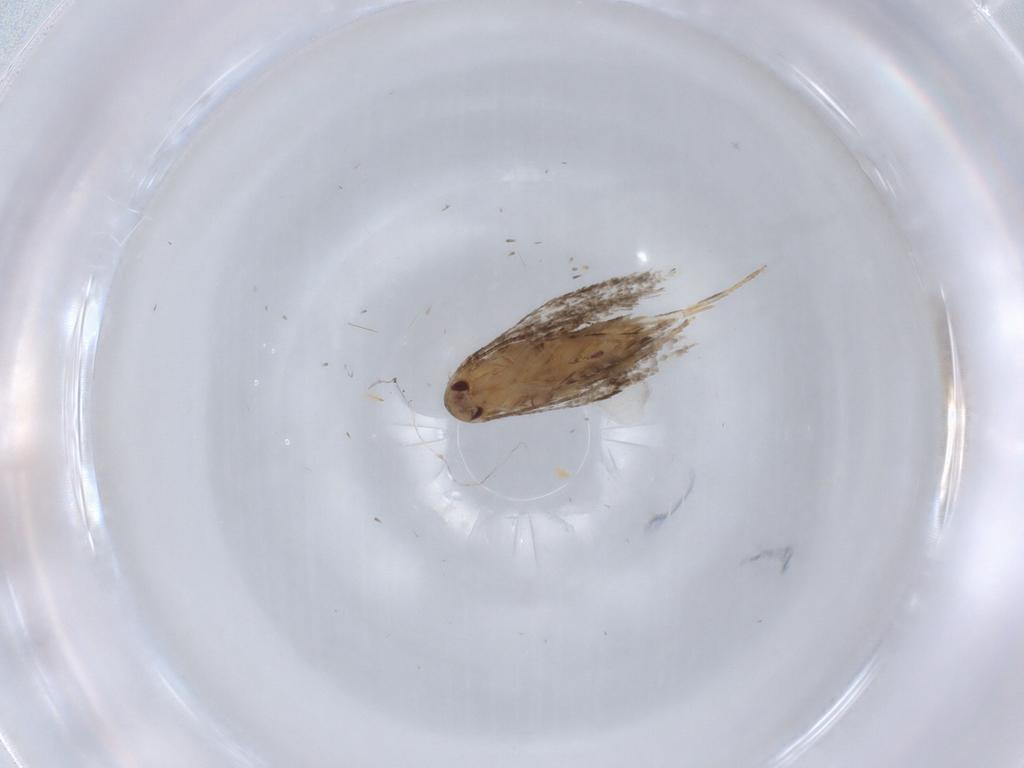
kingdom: Animalia
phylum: Arthropoda
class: Insecta
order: Lepidoptera
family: Elachistidae
